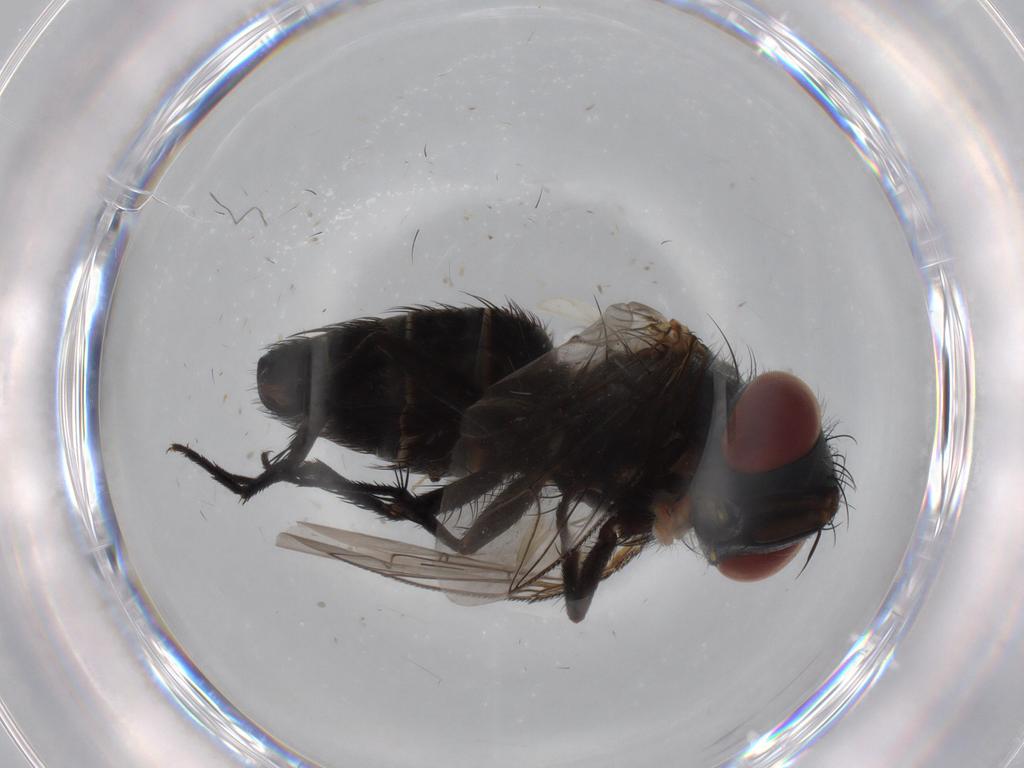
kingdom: Animalia
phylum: Arthropoda
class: Insecta
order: Diptera
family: Sarcophagidae
